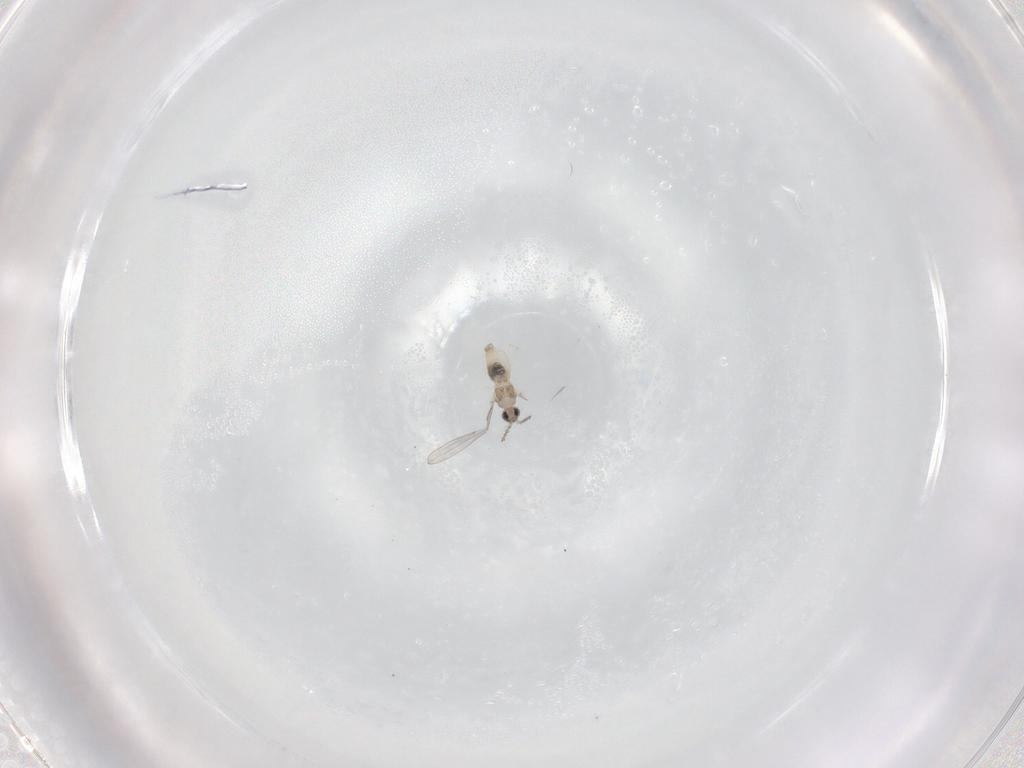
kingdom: Animalia
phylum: Arthropoda
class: Insecta
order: Diptera
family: Cecidomyiidae
